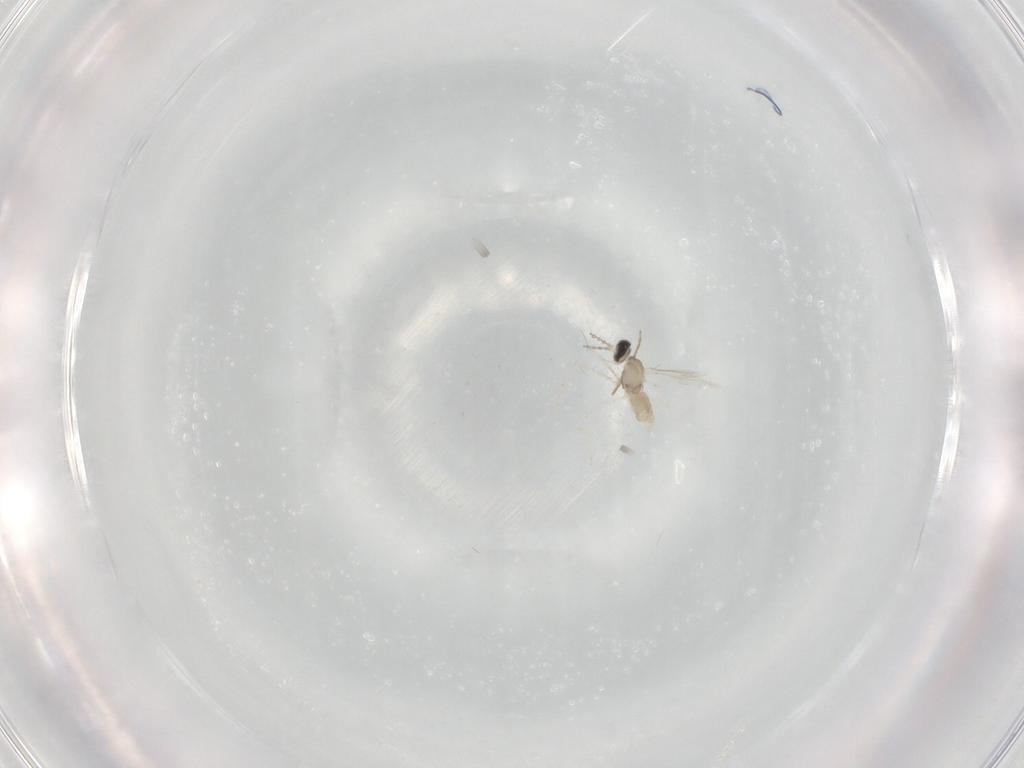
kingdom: Animalia
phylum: Arthropoda
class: Insecta
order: Diptera
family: Chironomidae
